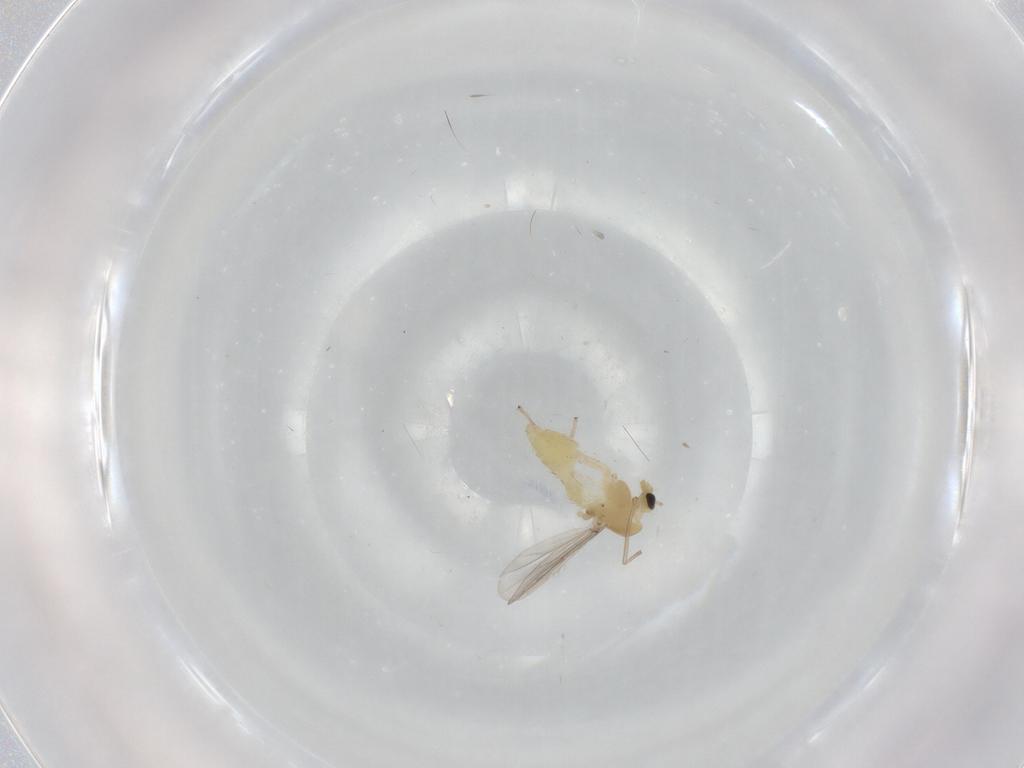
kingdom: Animalia
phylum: Arthropoda
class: Insecta
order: Diptera
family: Chironomidae
